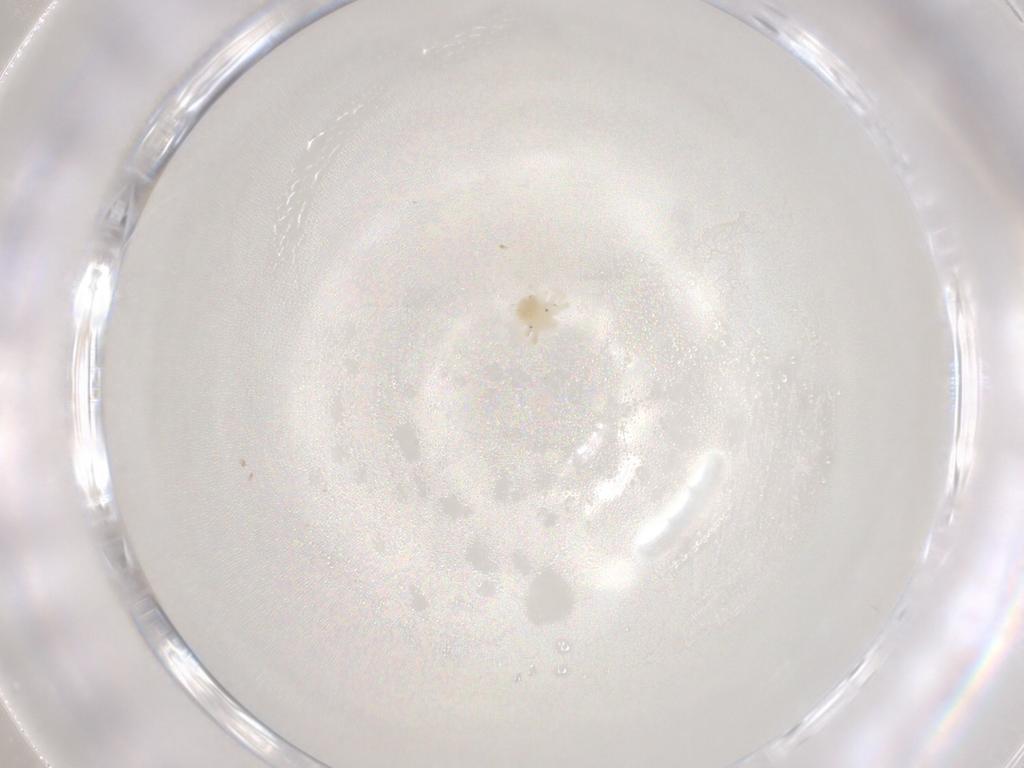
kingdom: Animalia
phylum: Arthropoda
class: Arachnida
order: Trombidiformes
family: Anystidae
